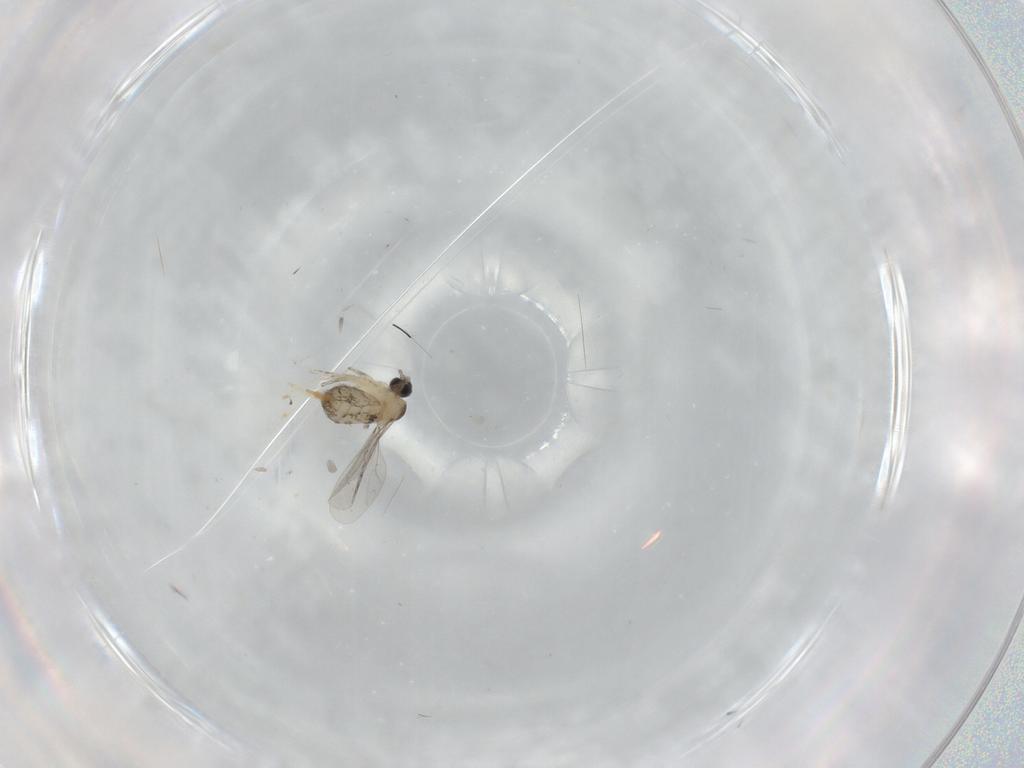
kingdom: Animalia
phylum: Arthropoda
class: Insecta
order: Diptera
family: Cecidomyiidae
